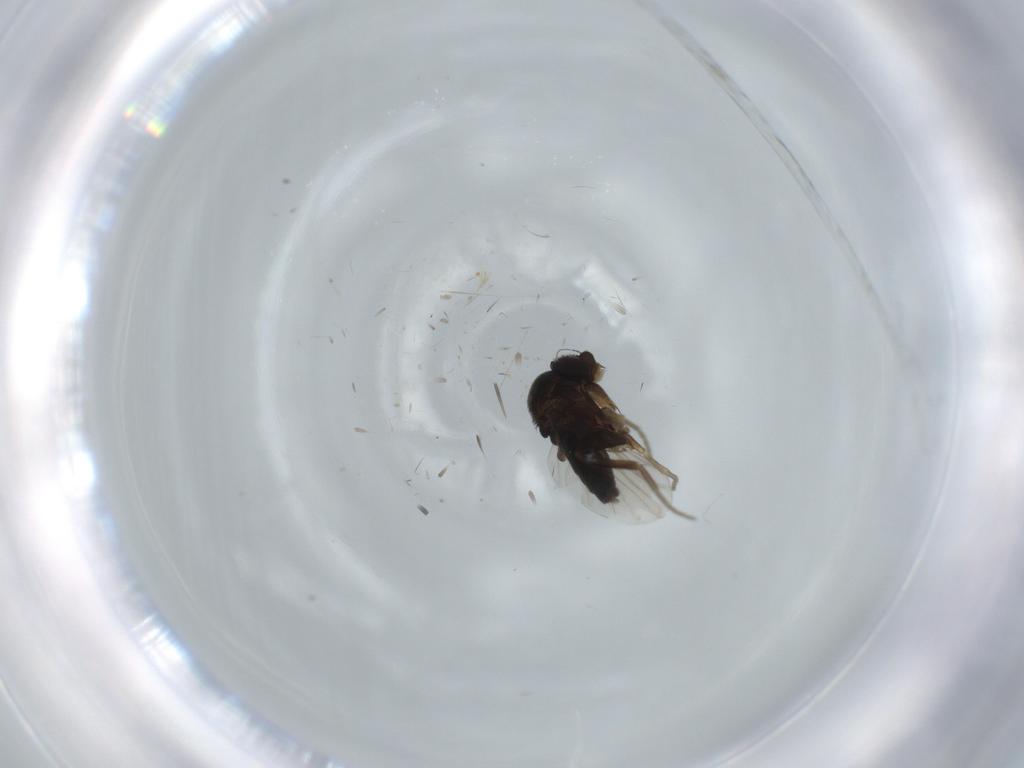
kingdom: Animalia
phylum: Arthropoda
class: Insecta
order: Diptera
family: Phoridae
